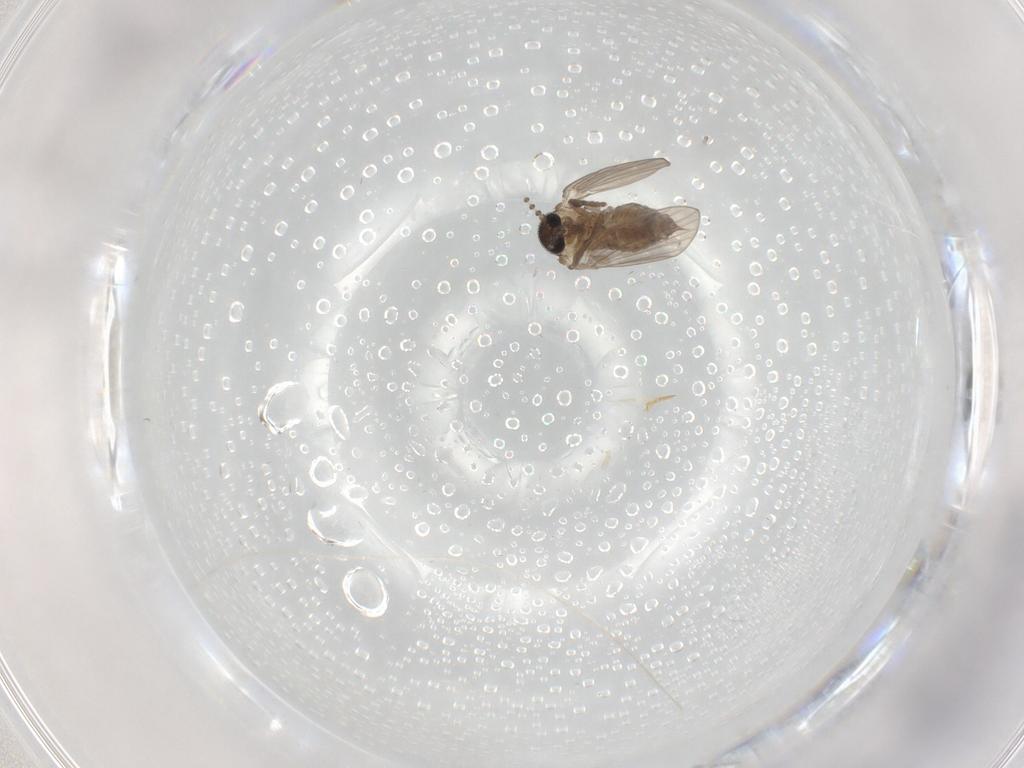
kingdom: Animalia
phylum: Arthropoda
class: Insecta
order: Diptera
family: Psychodidae
